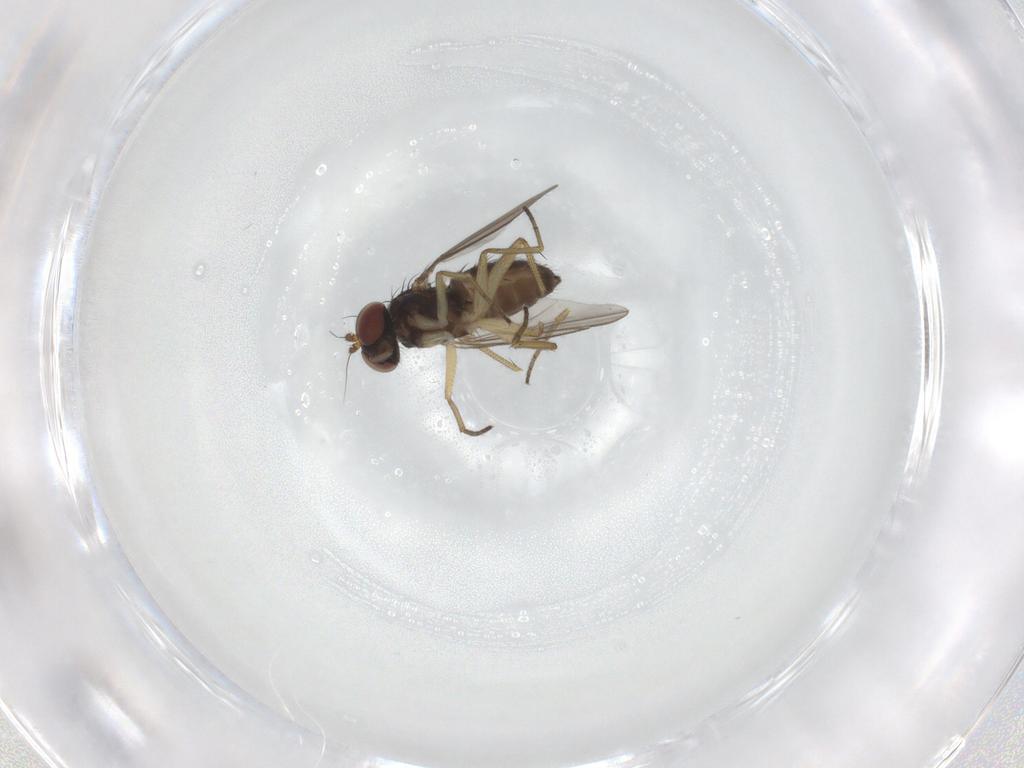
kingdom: Animalia
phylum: Arthropoda
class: Insecta
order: Diptera
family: Dolichopodidae
